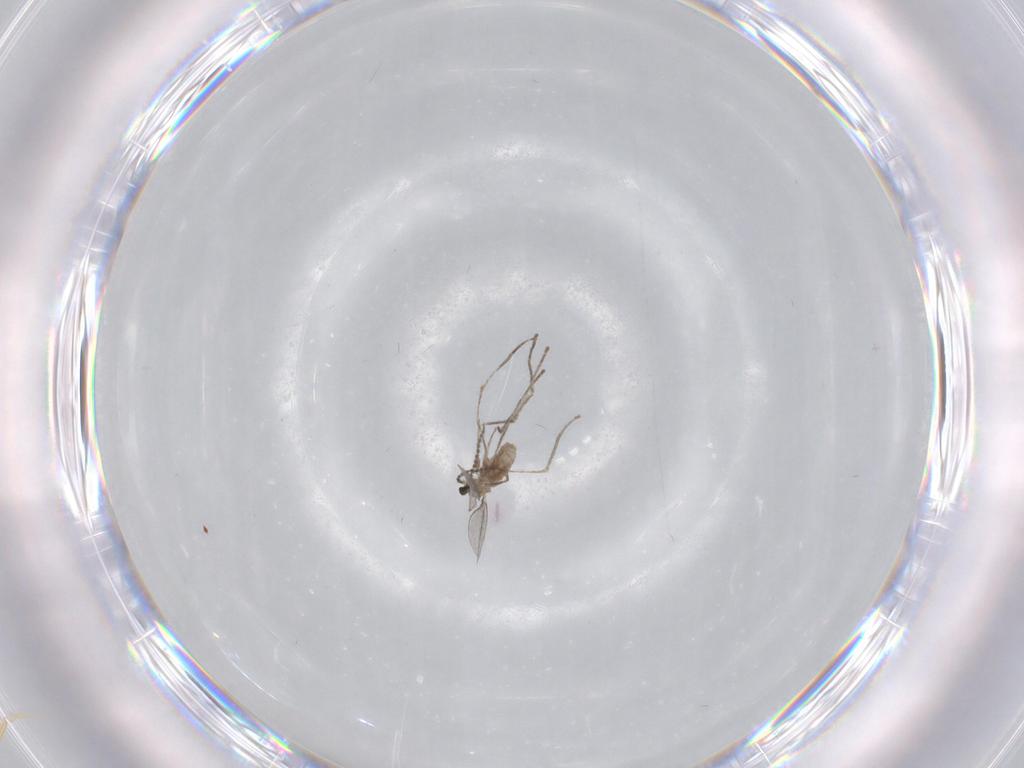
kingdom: Animalia
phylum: Arthropoda
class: Insecta
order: Diptera
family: Cecidomyiidae
